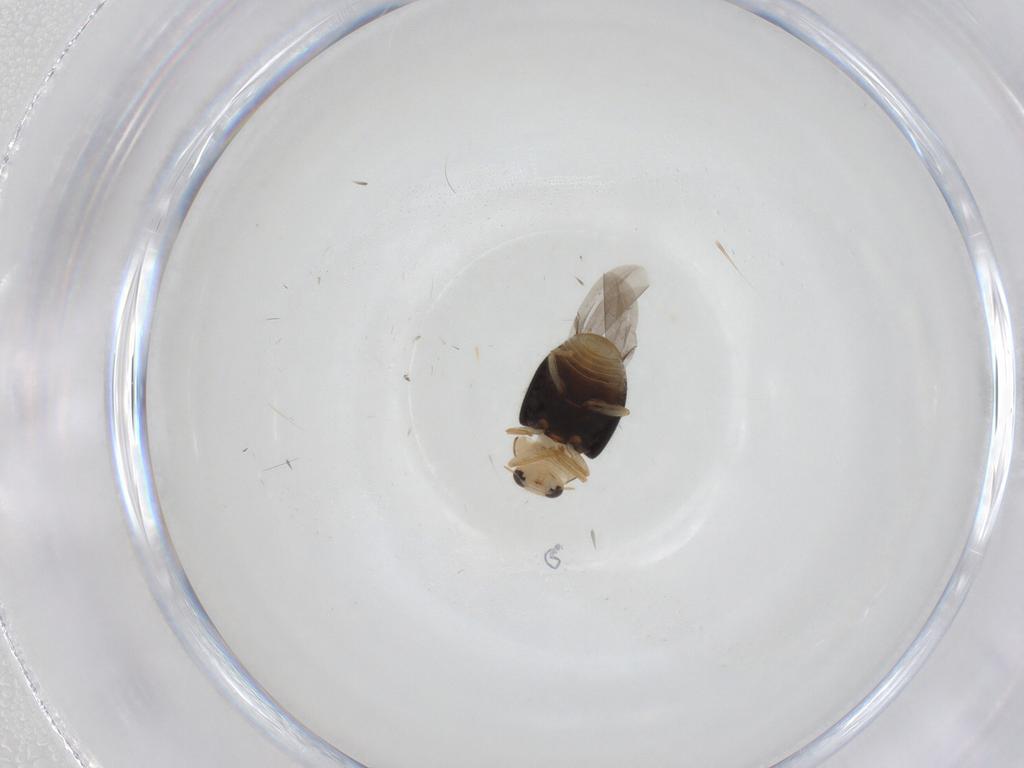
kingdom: Animalia
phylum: Arthropoda
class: Insecta
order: Coleoptera
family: Coccinellidae
